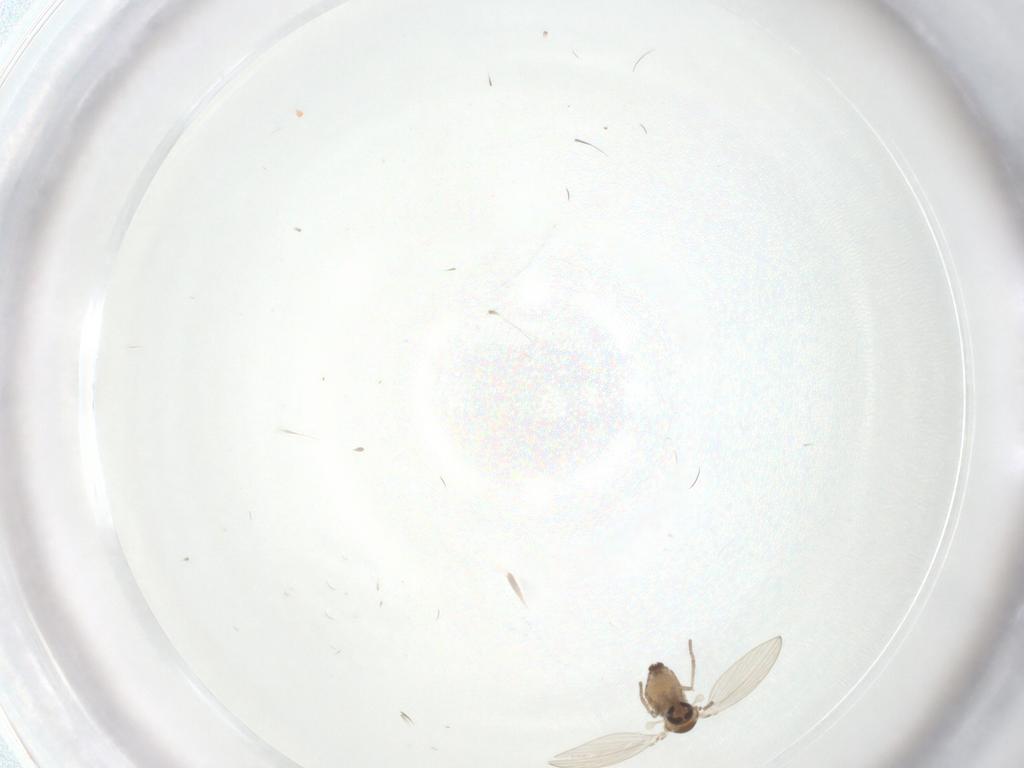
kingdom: Animalia
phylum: Arthropoda
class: Insecta
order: Diptera
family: Psychodidae
